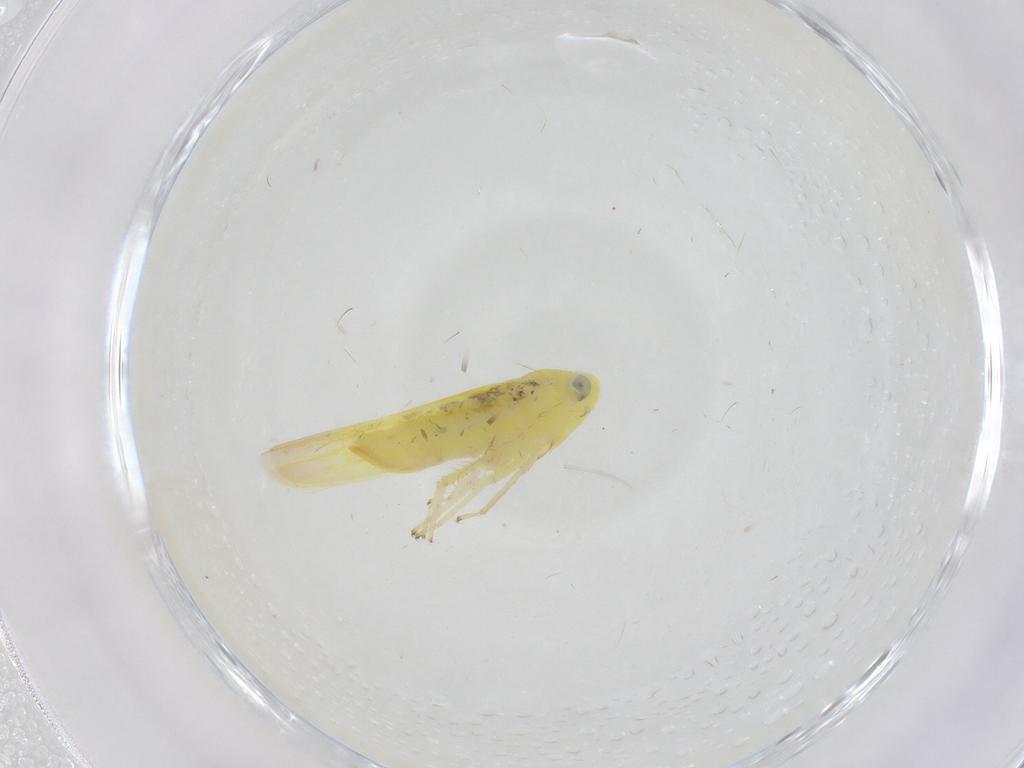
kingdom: Animalia
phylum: Arthropoda
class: Insecta
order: Hemiptera
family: Cicadellidae
